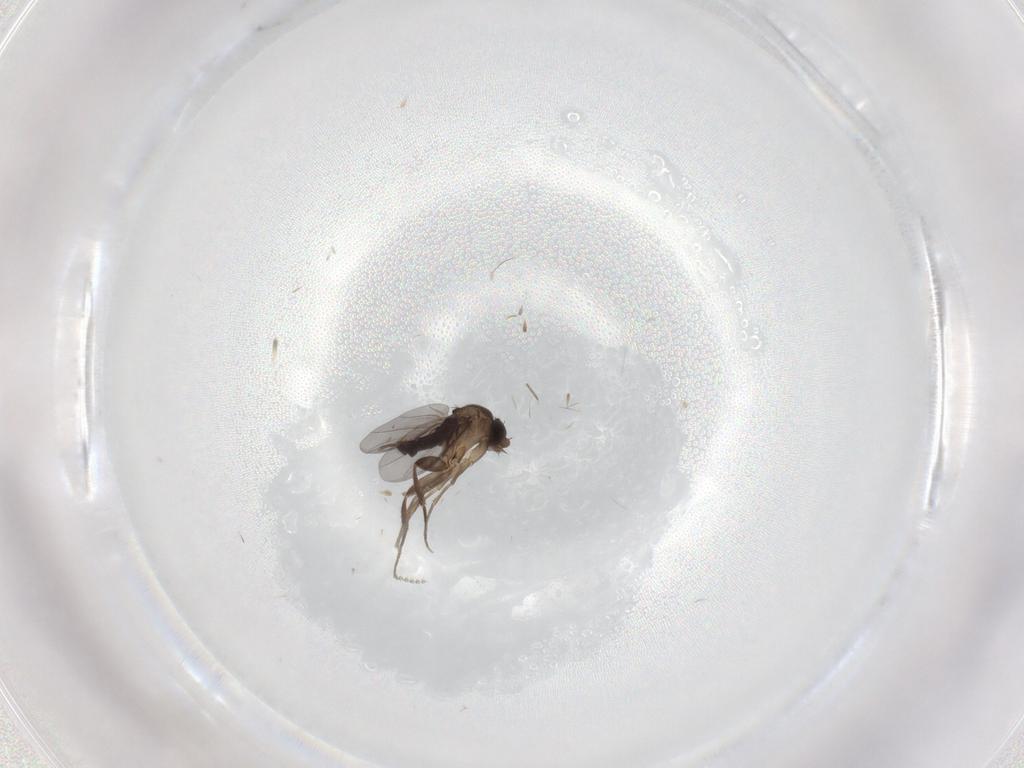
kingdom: Animalia
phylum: Arthropoda
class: Insecta
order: Diptera
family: Phoridae
